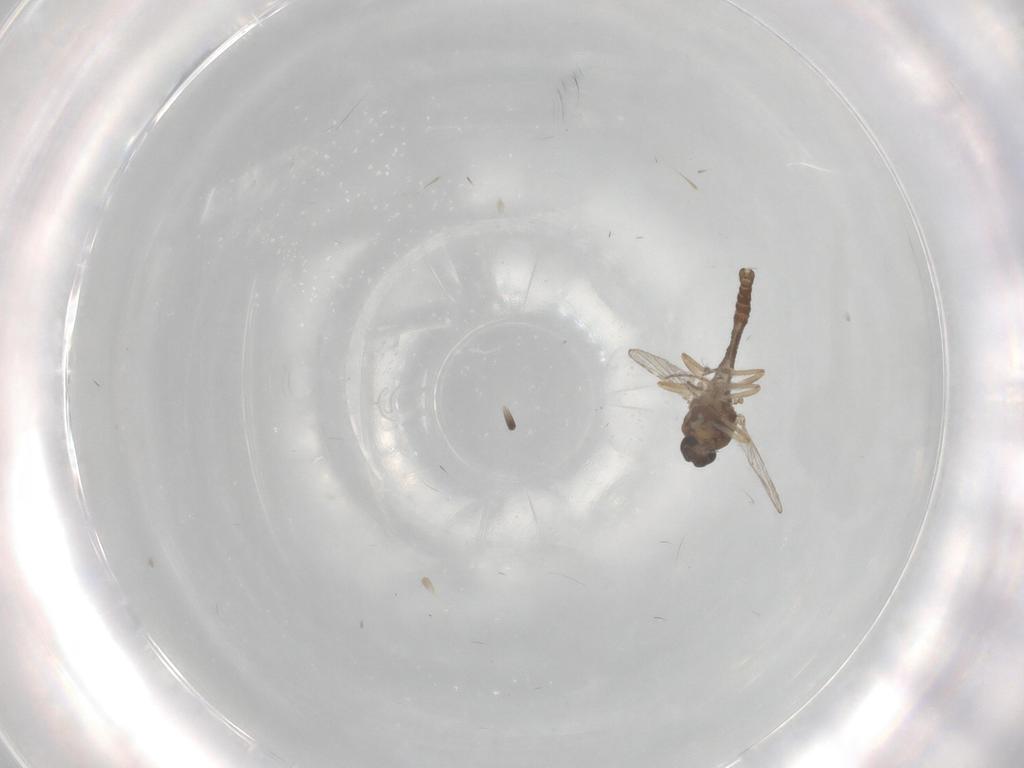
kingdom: Animalia
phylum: Arthropoda
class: Insecta
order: Diptera
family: Ceratopogonidae
